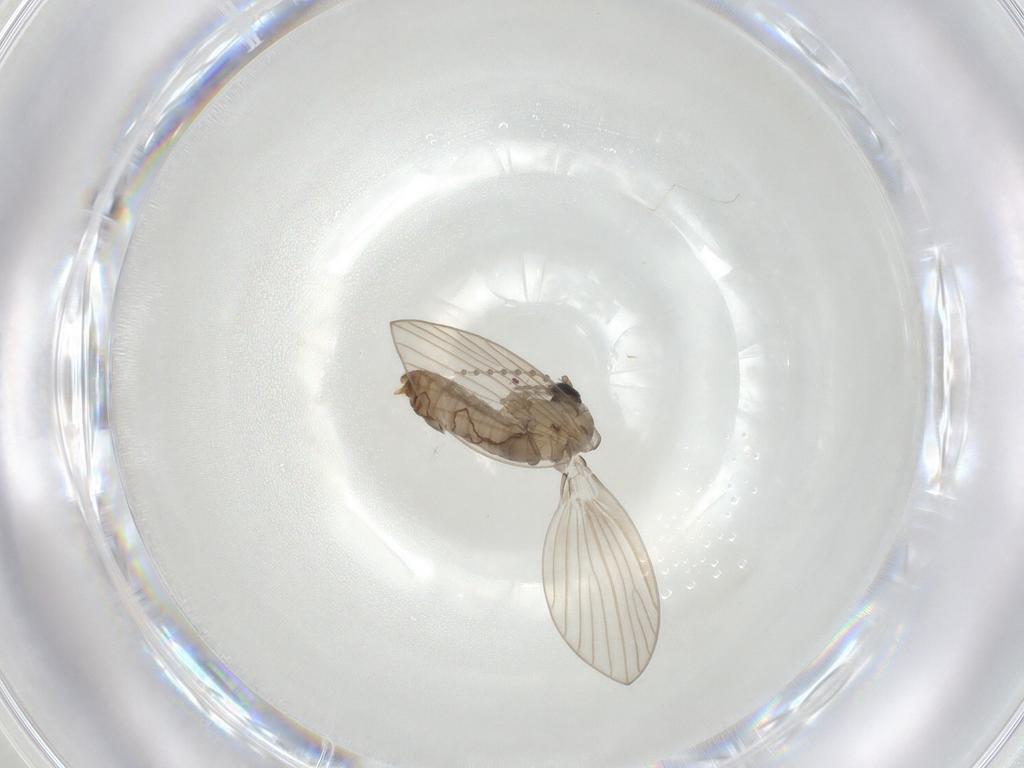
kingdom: Animalia
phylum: Arthropoda
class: Insecta
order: Diptera
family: Psychodidae
